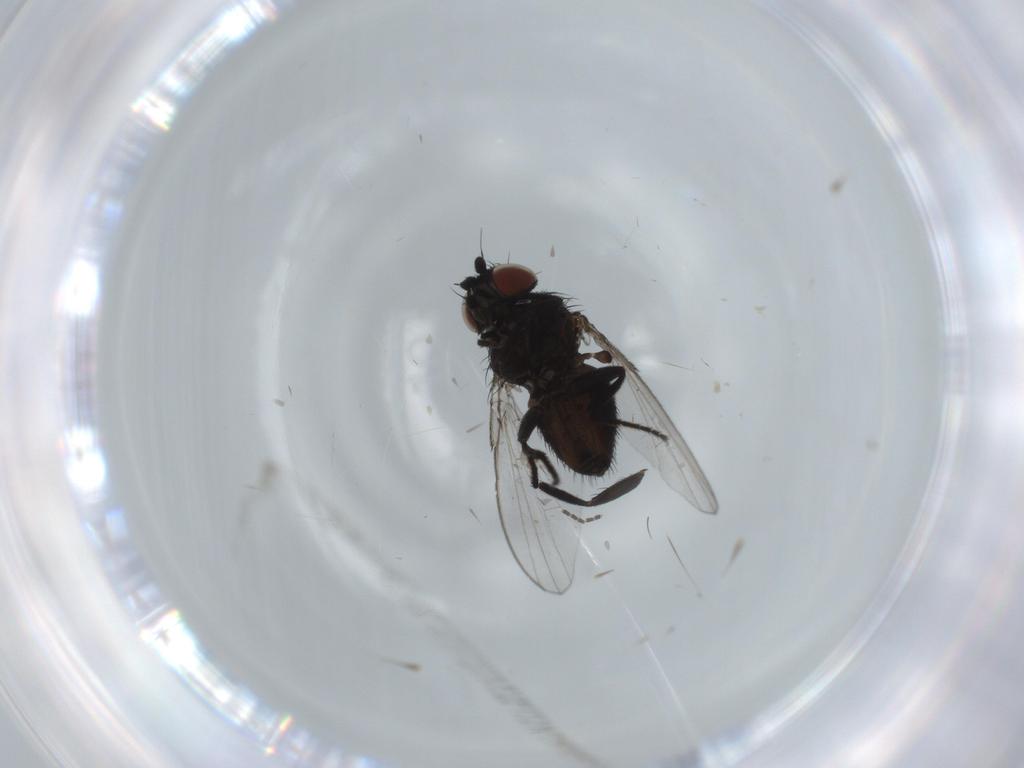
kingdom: Animalia
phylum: Arthropoda
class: Insecta
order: Diptera
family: Milichiidae
